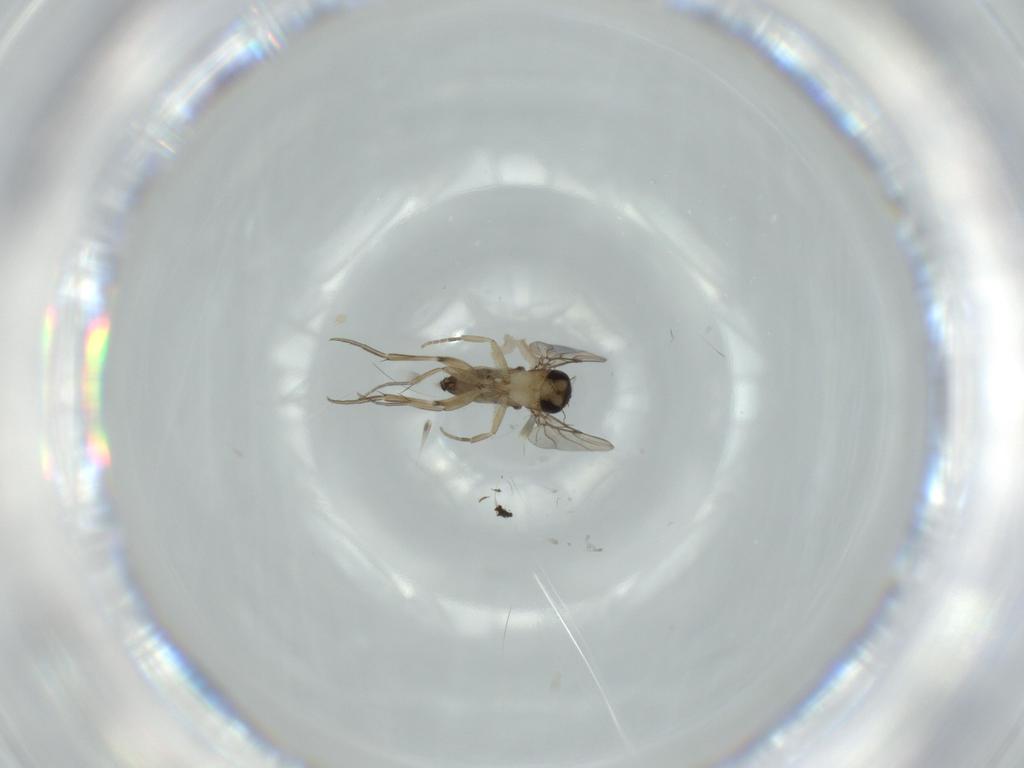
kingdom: Animalia
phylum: Arthropoda
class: Insecta
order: Diptera
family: Phoridae
